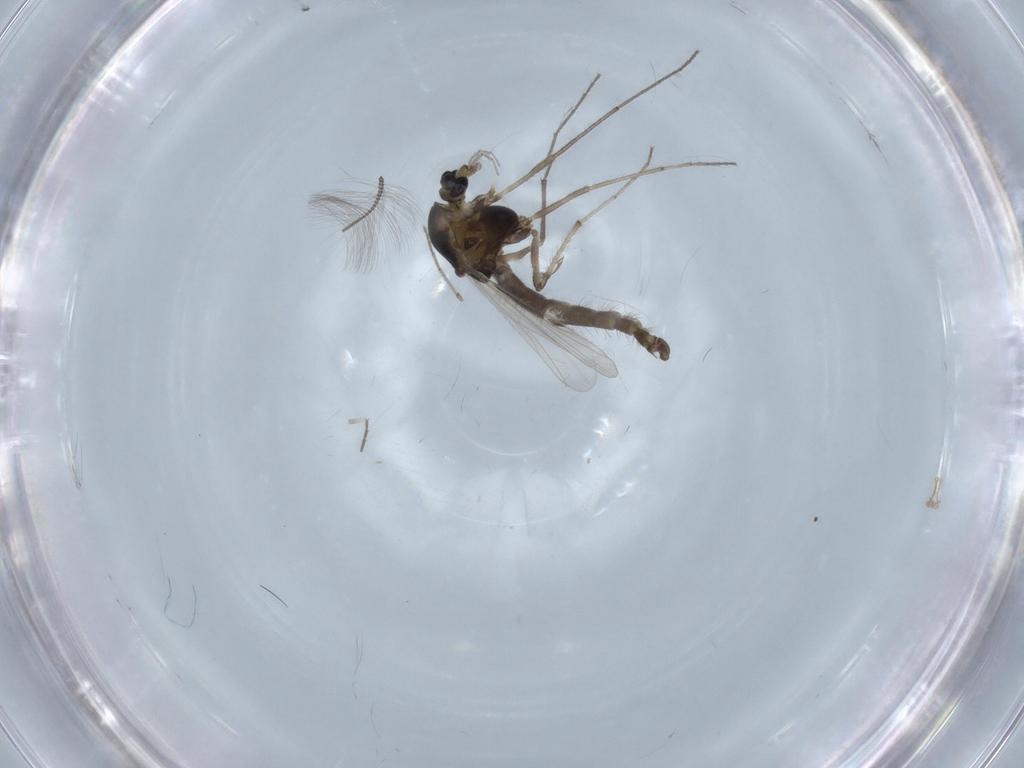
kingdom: Animalia
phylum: Arthropoda
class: Insecta
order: Diptera
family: Chironomidae
